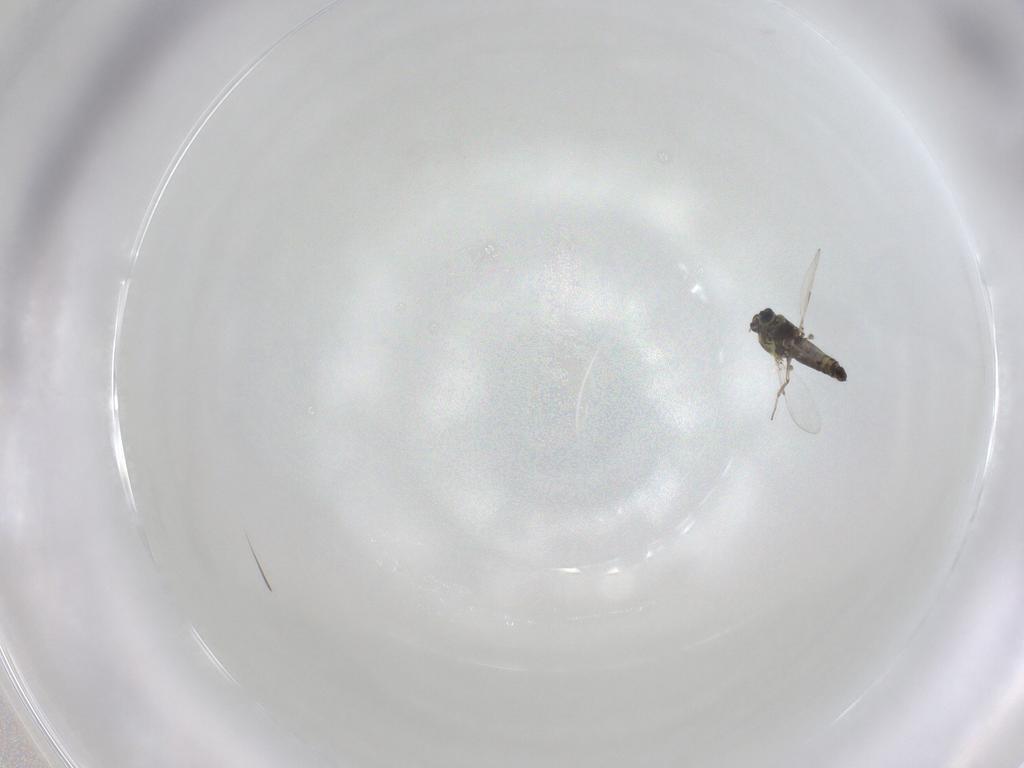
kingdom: Animalia
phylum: Arthropoda
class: Insecta
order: Diptera
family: Ceratopogonidae
